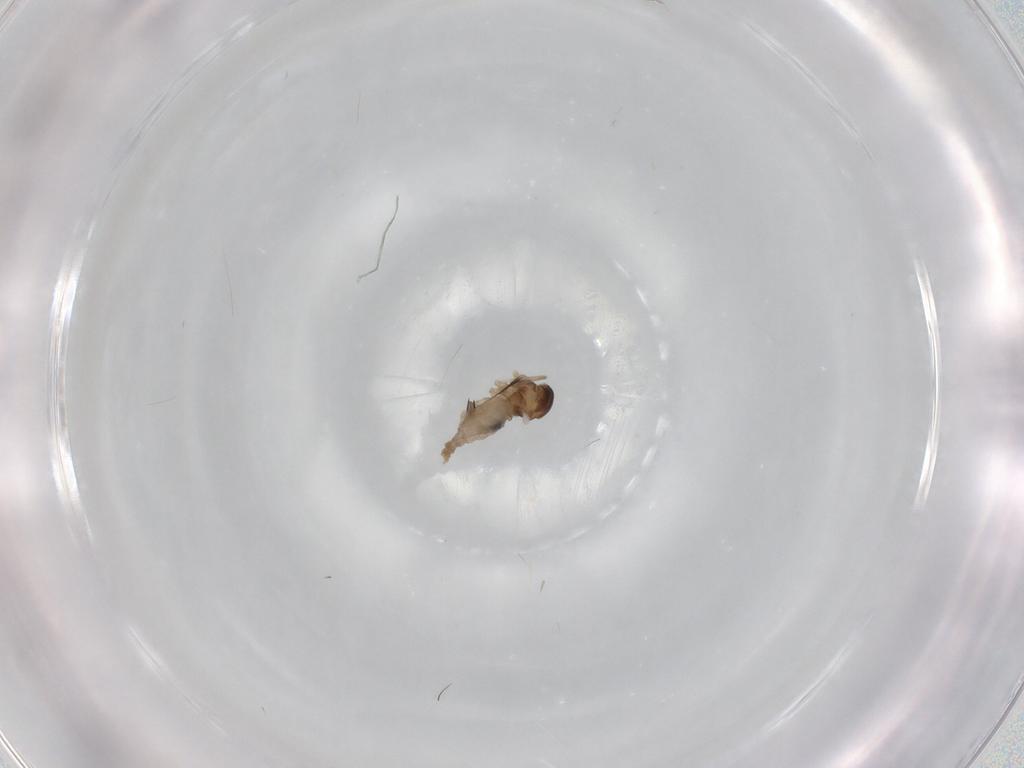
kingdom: Animalia
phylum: Arthropoda
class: Insecta
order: Diptera
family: Cecidomyiidae
